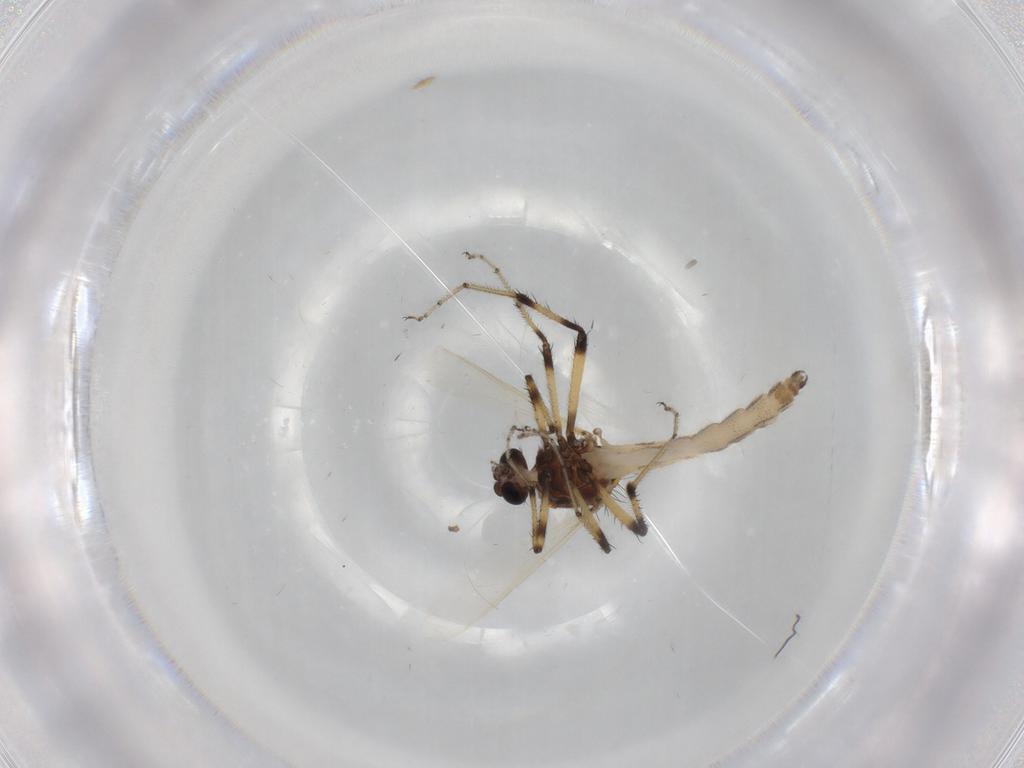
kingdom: Animalia
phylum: Arthropoda
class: Insecta
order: Diptera
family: Ceratopogonidae
